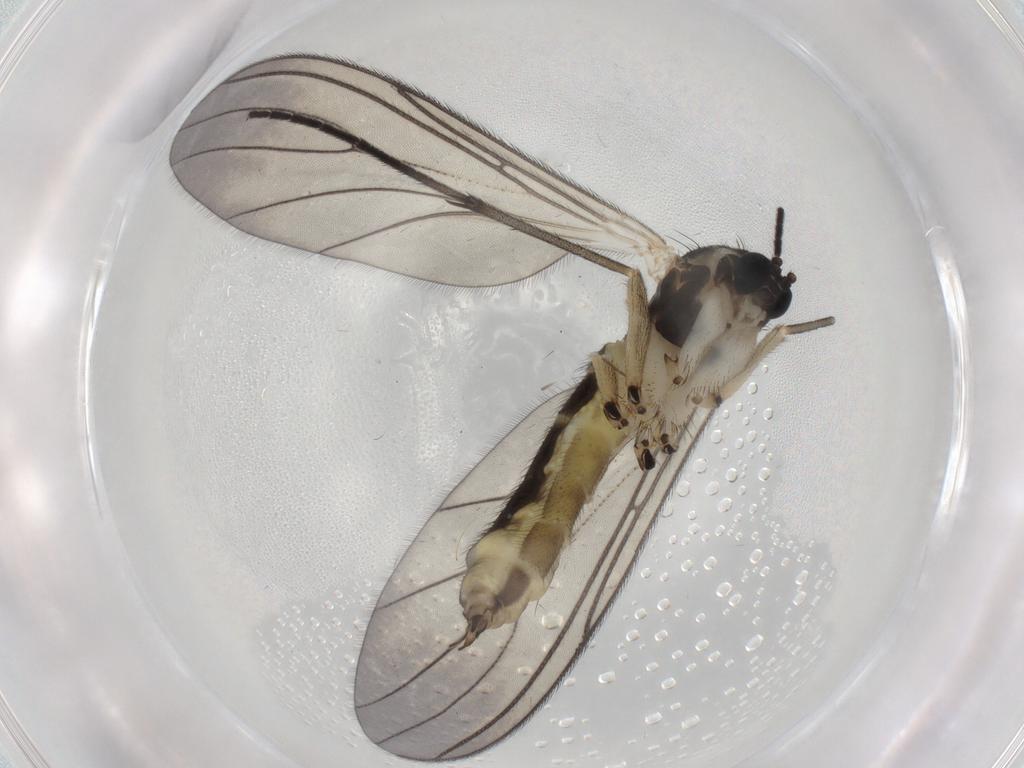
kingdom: Animalia
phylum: Arthropoda
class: Insecta
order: Diptera
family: Sciaridae
